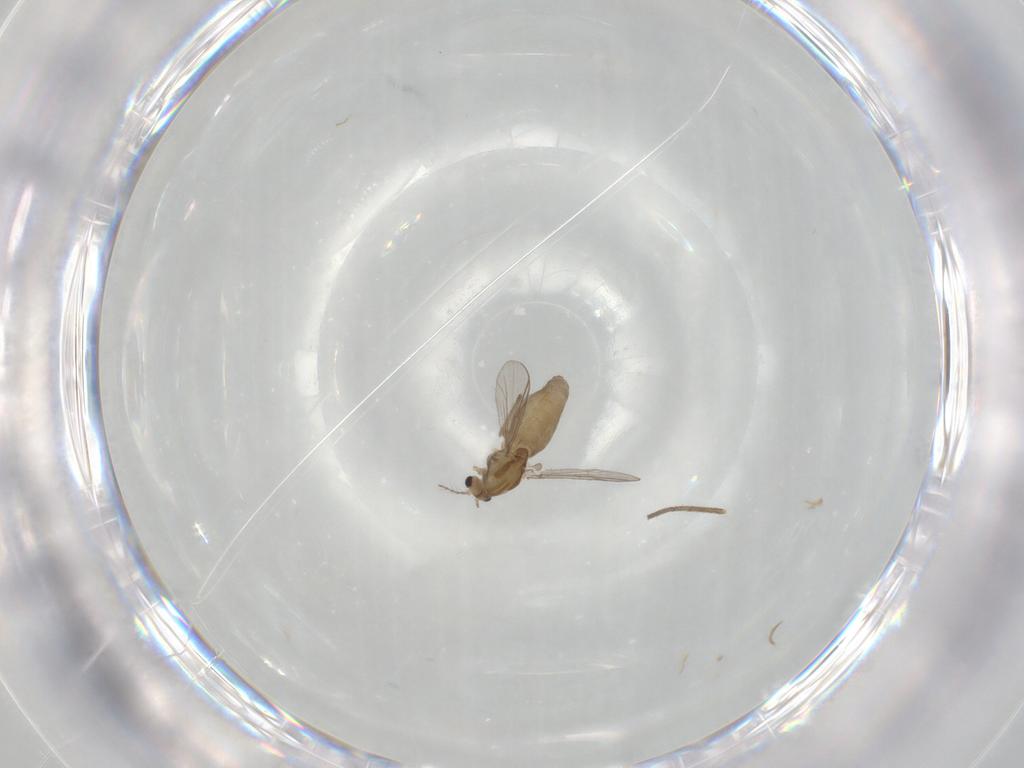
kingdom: Animalia
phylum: Arthropoda
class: Insecta
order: Diptera
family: Chironomidae
